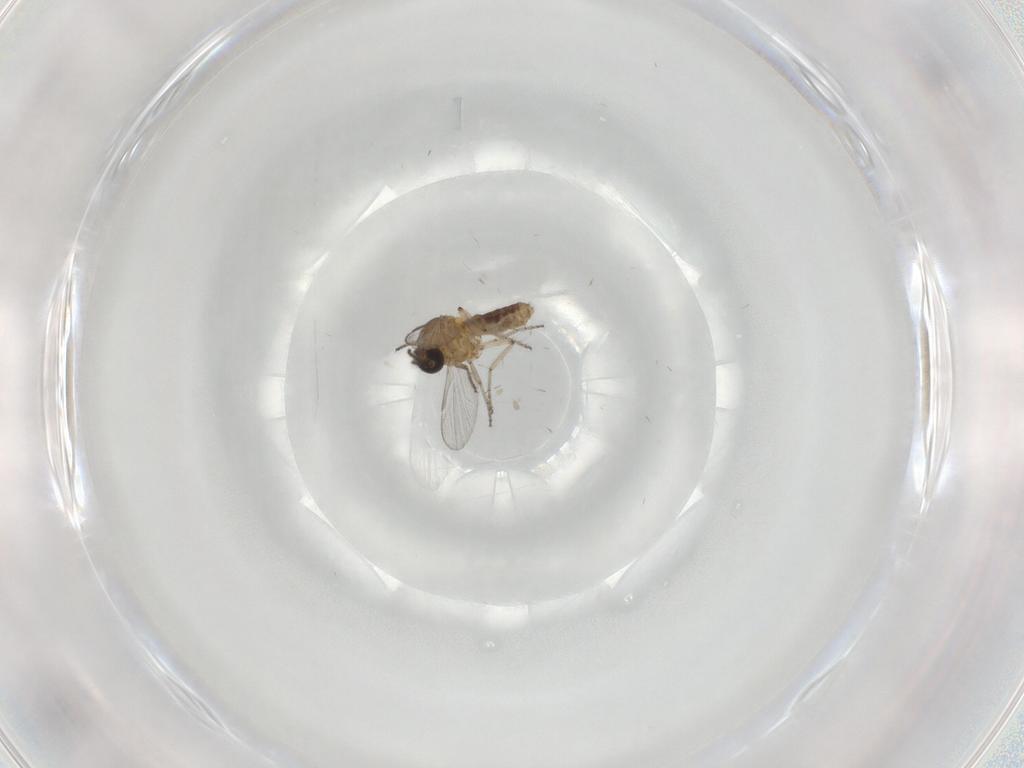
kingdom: Animalia
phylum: Arthropoda
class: Insecta
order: Diptera
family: Ceratopogonidae
